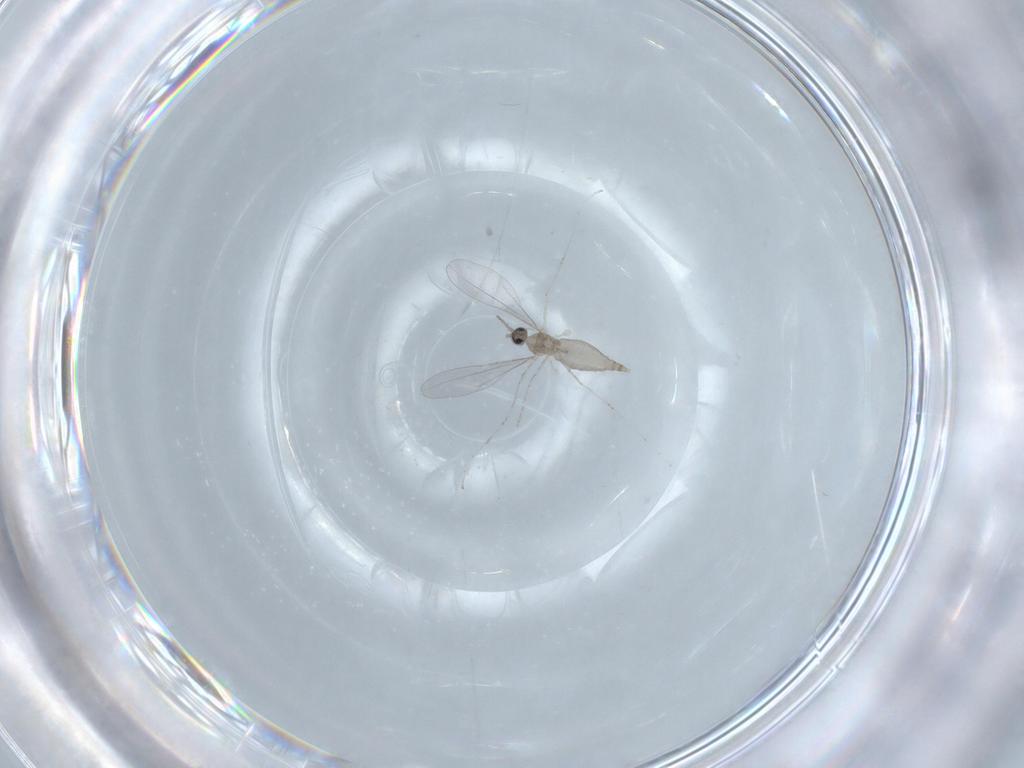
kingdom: Animalia
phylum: Arthropoda
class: Insecta
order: Diptera
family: Cecidomyiidae
